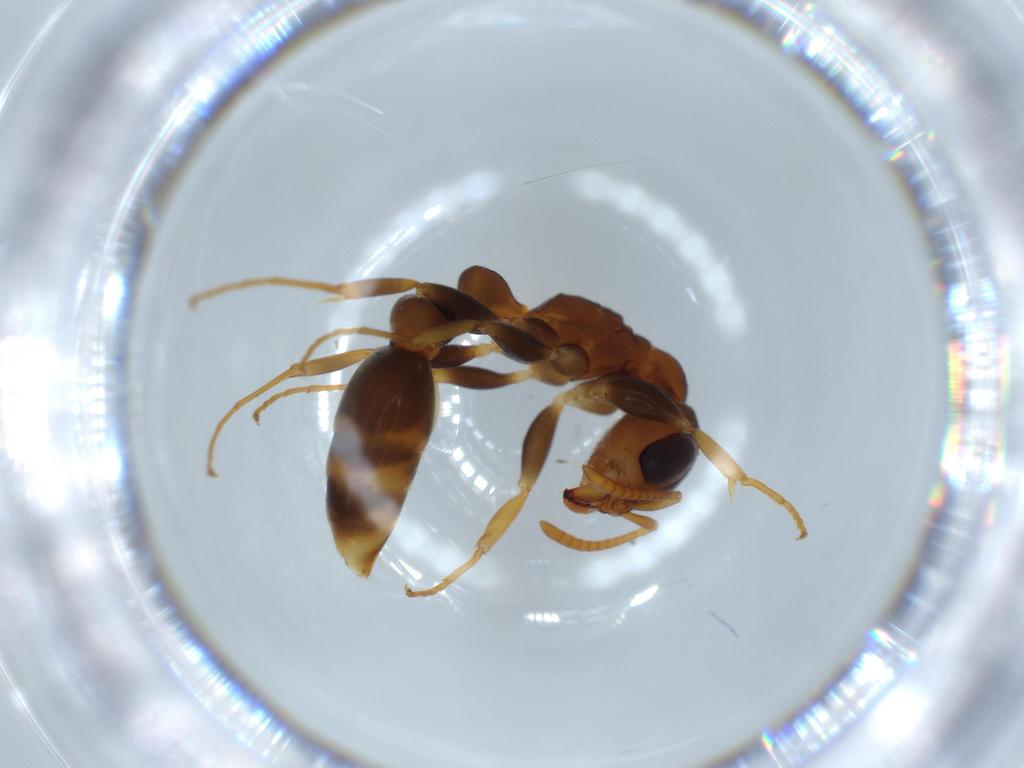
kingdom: Animalia
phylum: Arthropoda
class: Insecta
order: Hymenoptera
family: Formicidae
